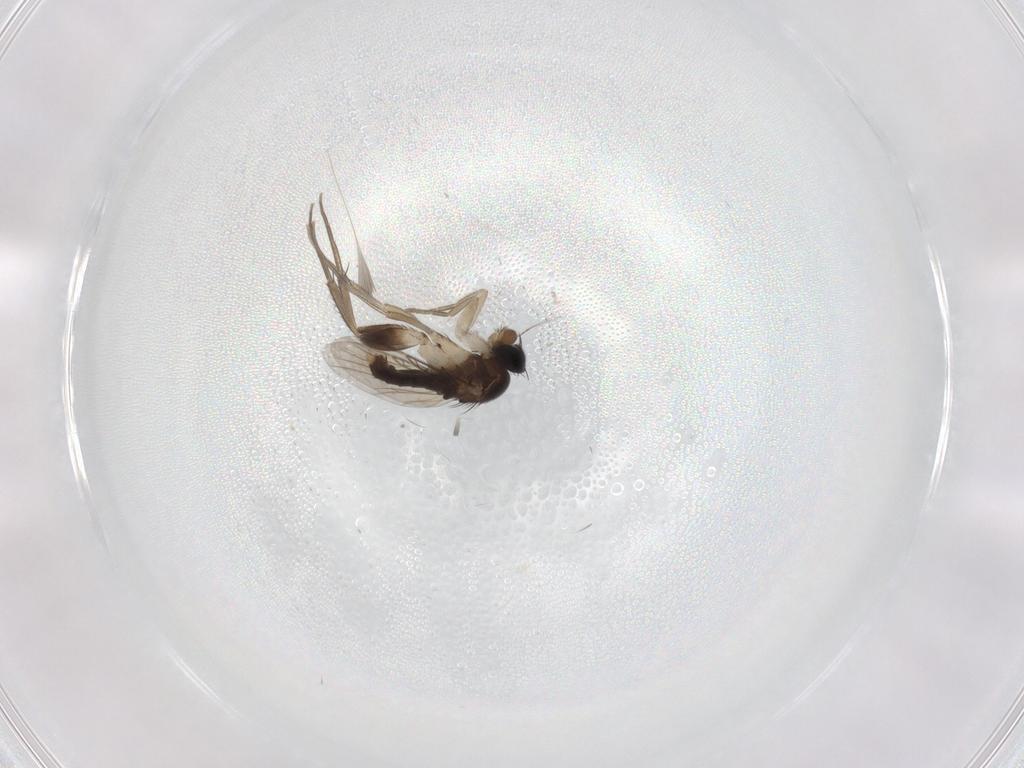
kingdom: Animalia
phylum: Arthropoda
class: Insecta
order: Diptera
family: Phoridae
